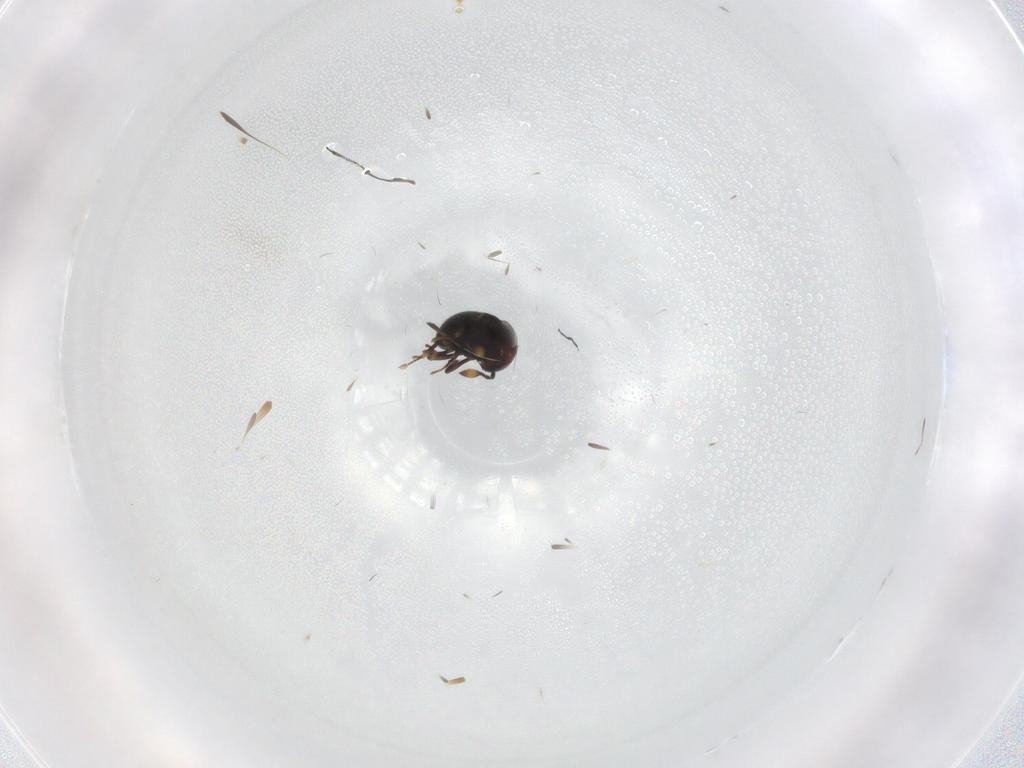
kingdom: Animalia
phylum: Arthropoda
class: Insecta
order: Hymenoptera
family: Scelionidae
